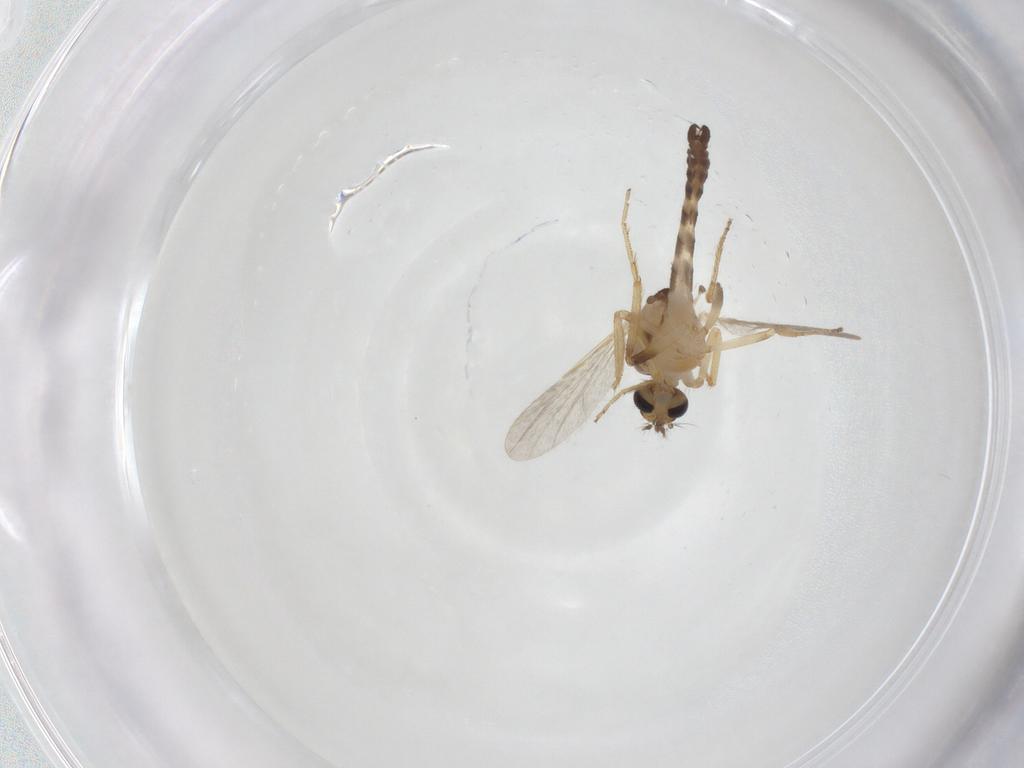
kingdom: Animalia
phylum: Arthropoda
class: Insecta
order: Diptera
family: Ceratopogonidae
